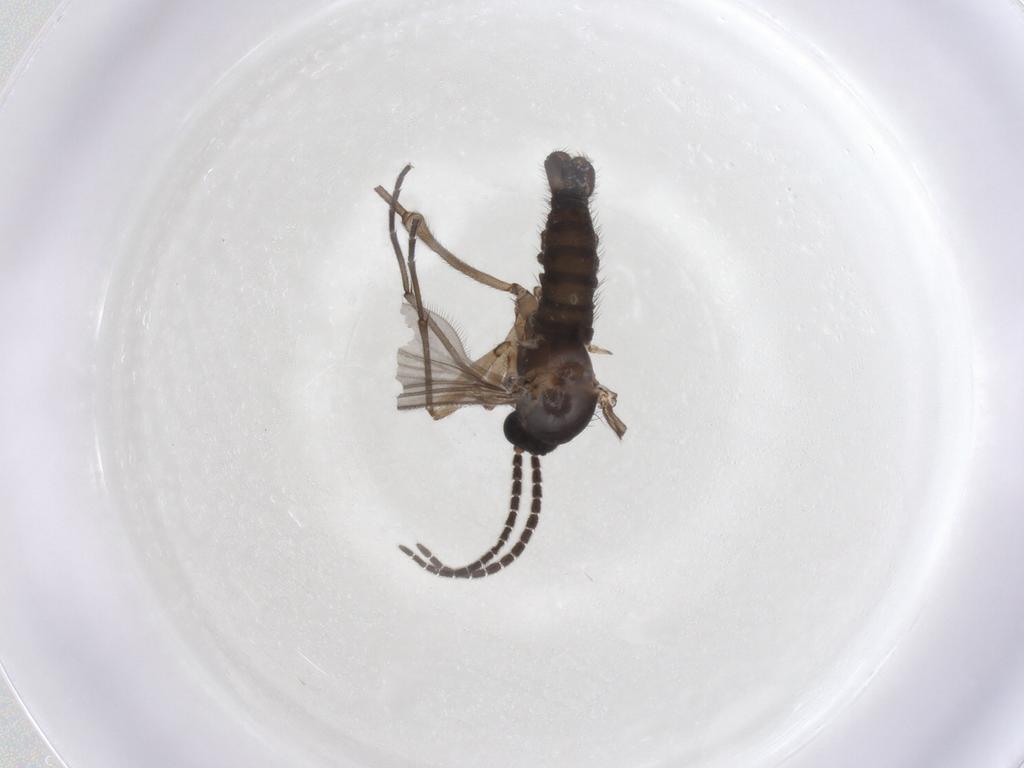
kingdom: Animalia
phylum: Arthropoda
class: Insecta
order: Diptera
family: Sciaridae
